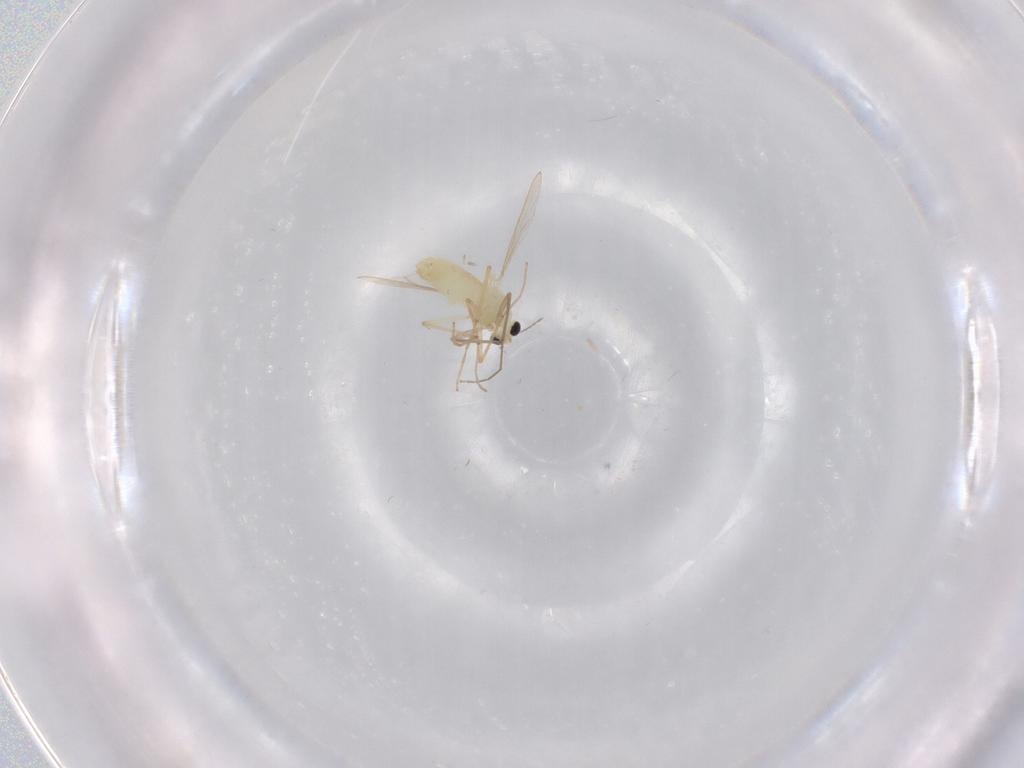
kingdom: Animalia
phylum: Arthropoda
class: Insecta
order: Diptera
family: Chironomidae
